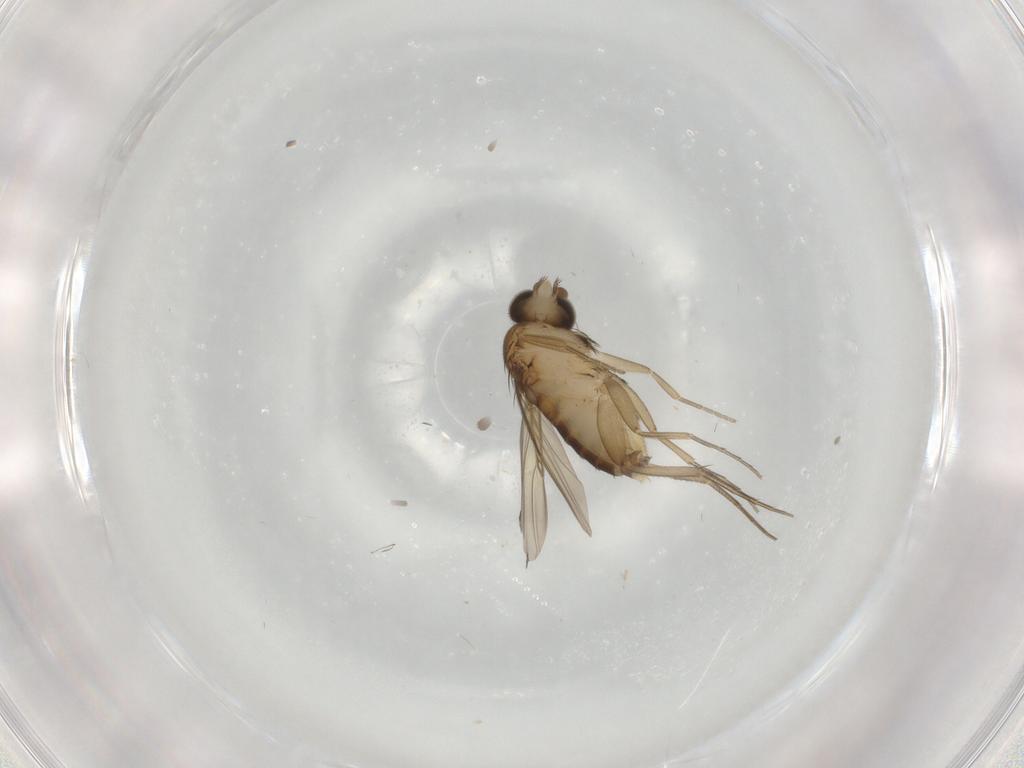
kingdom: Animalia
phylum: Arthropoda
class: Insecta
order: Diptera
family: Phoridae
